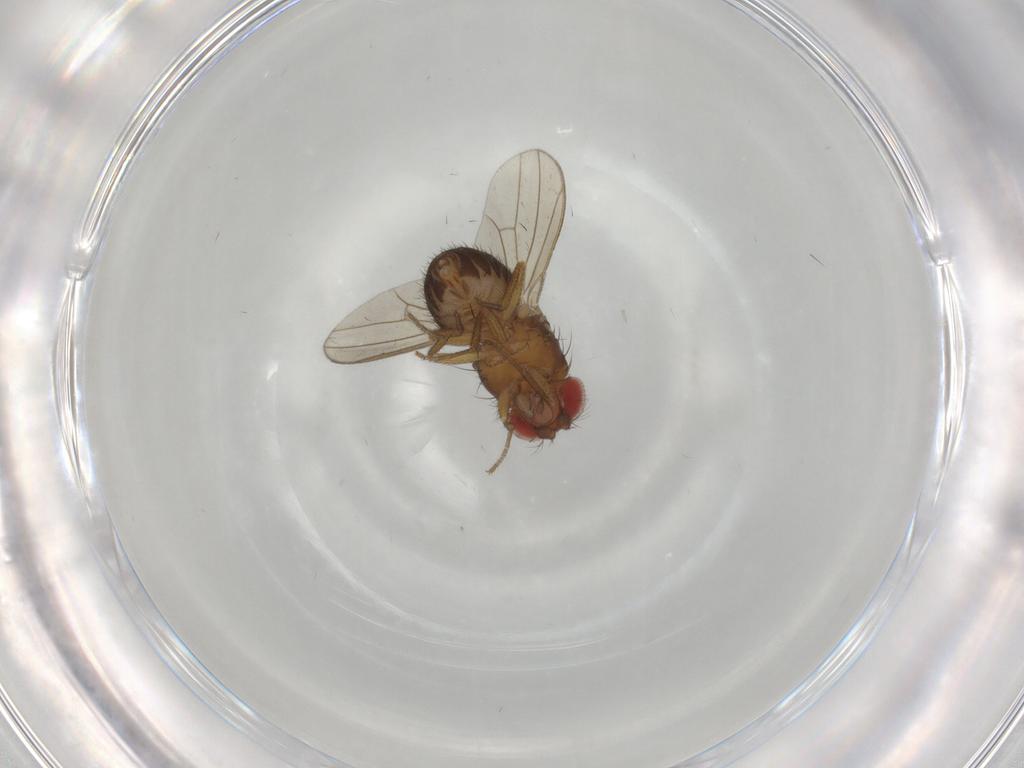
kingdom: Animalia
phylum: Arthropoda
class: Insecta
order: Diptera
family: Drosophilidae
